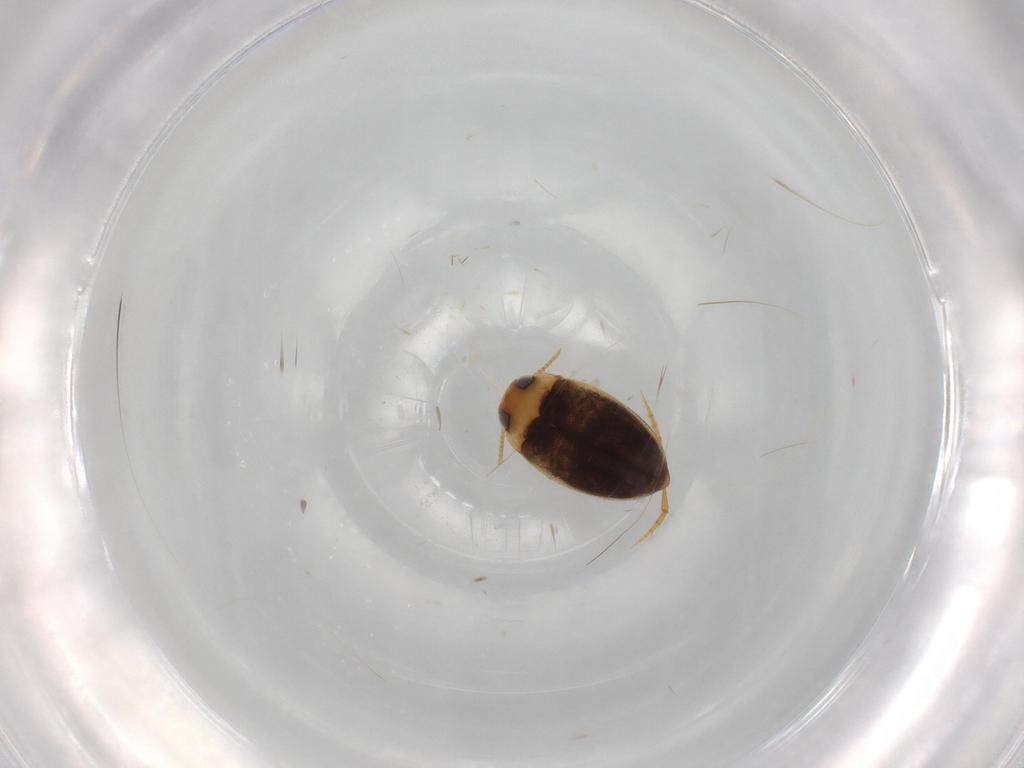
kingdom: Animalia
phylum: Arthropoda
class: Insecta
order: Coleoptera
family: Dytiscidae
